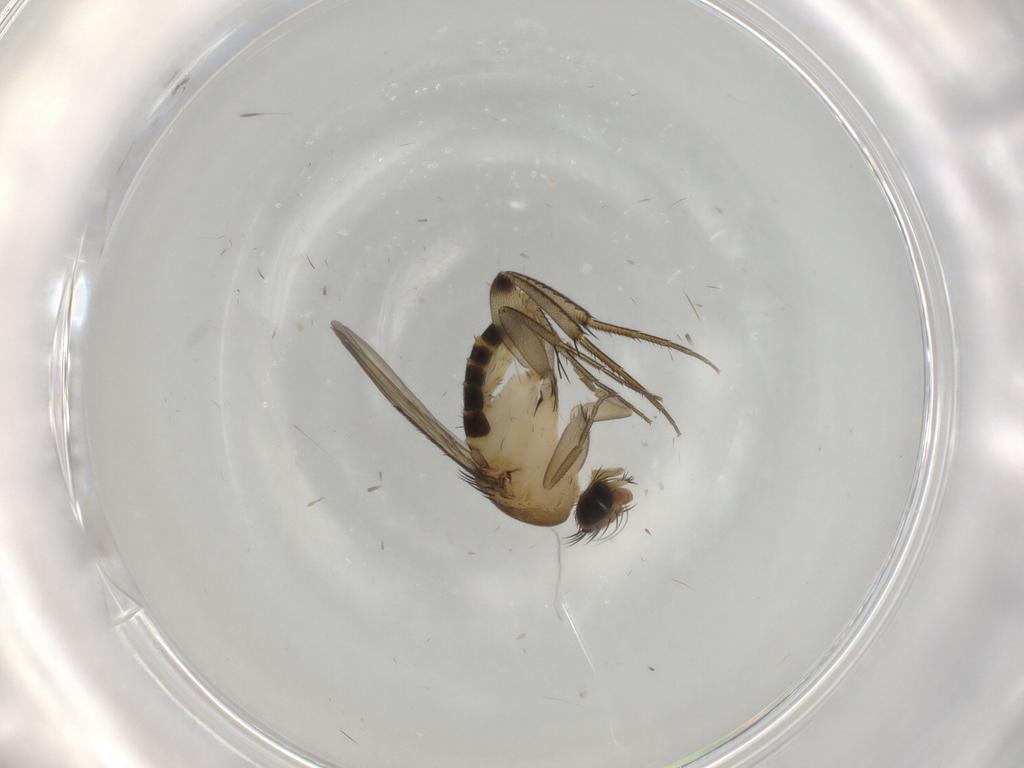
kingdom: Animalia
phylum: Arthropoda
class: Insecta
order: Diptera
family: Phoridae
